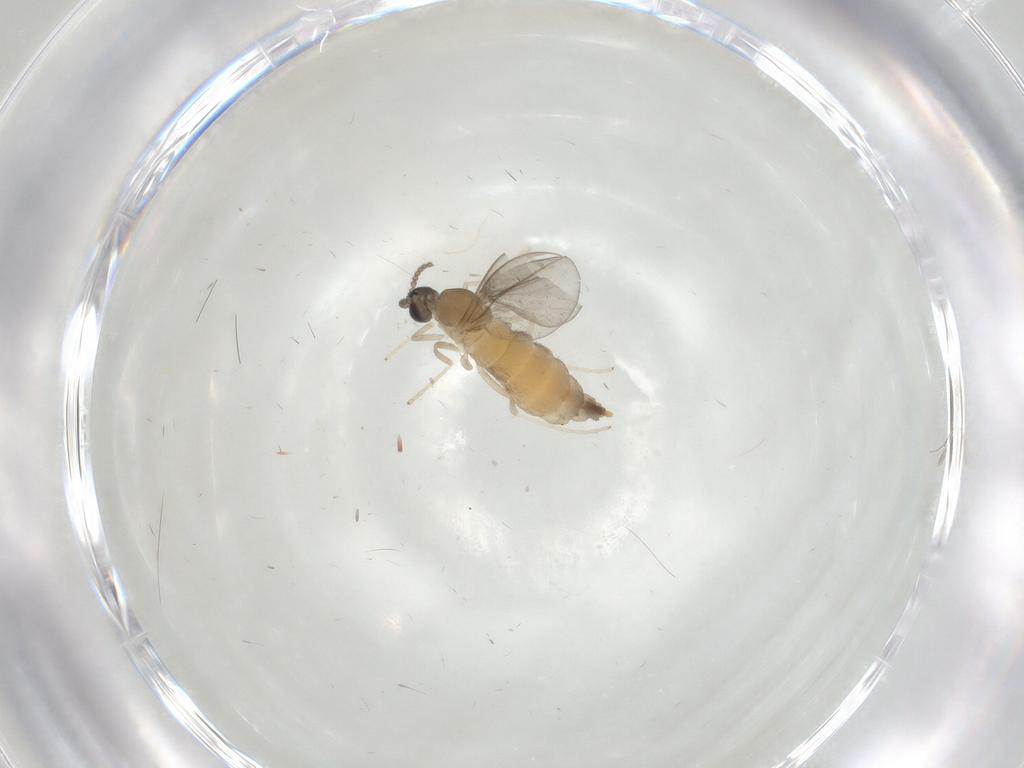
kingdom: Animalia
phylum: Arthropoda
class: Insecta
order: Diptera
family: Cecidomyiidae
